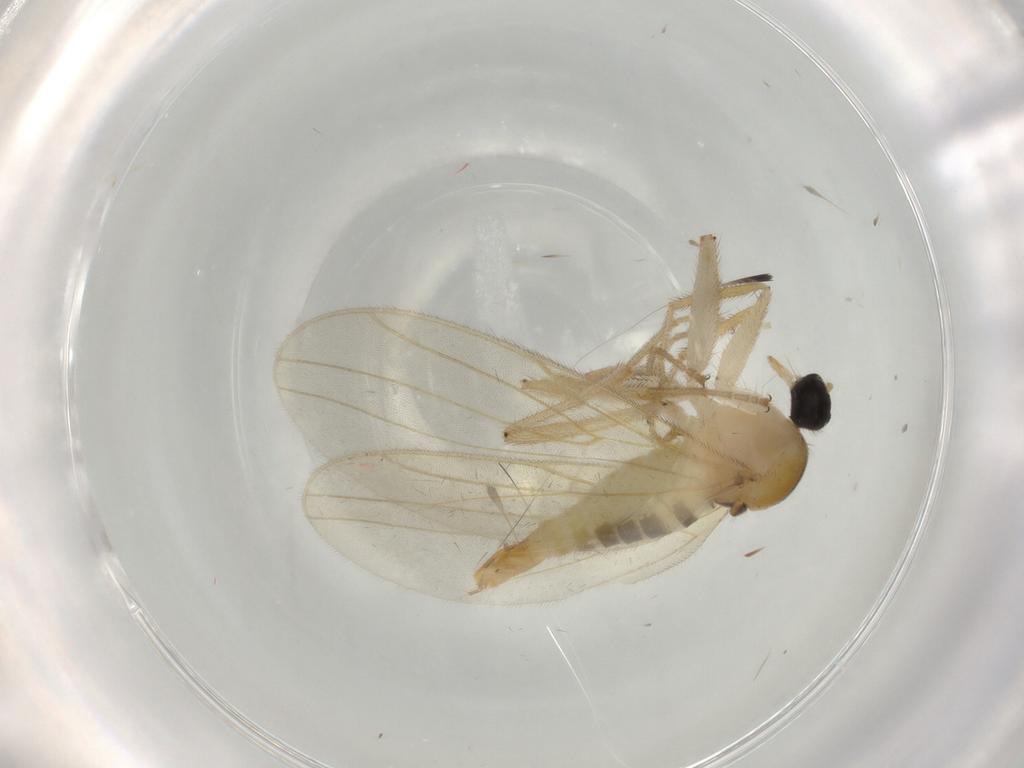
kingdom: Animalia
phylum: Arthropoda
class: Insecta
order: Diptera
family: Hybotidae
